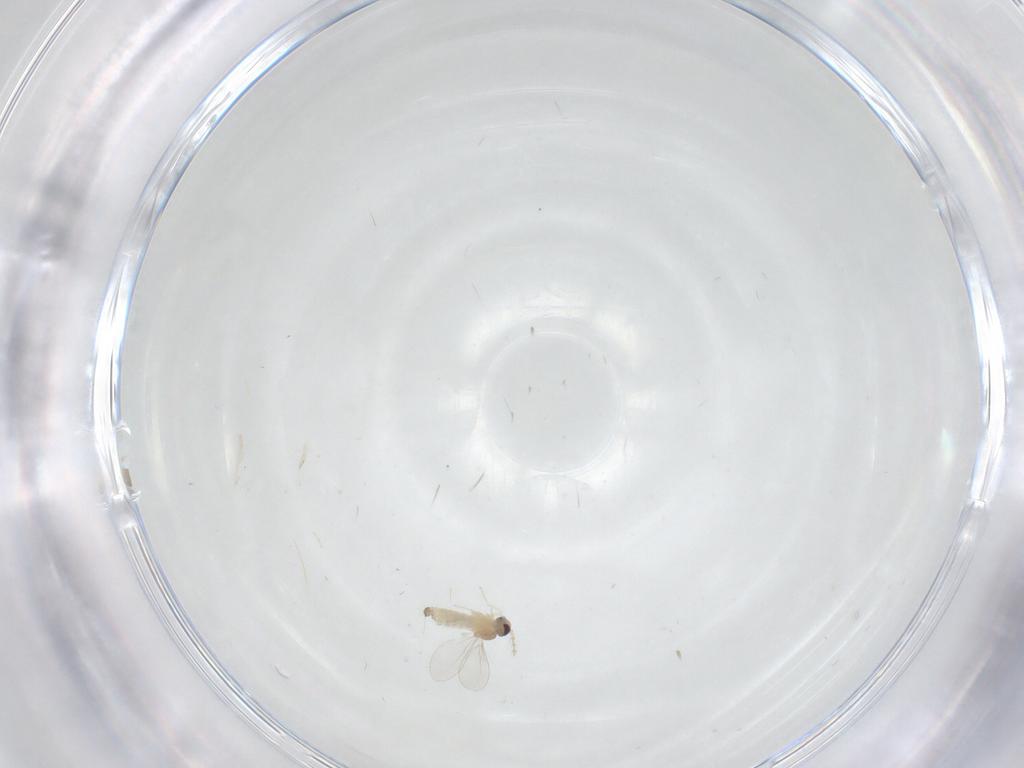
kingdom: Animalia
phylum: Arthropoda
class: Insecta
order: Diptera
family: Cecidomyiidae
